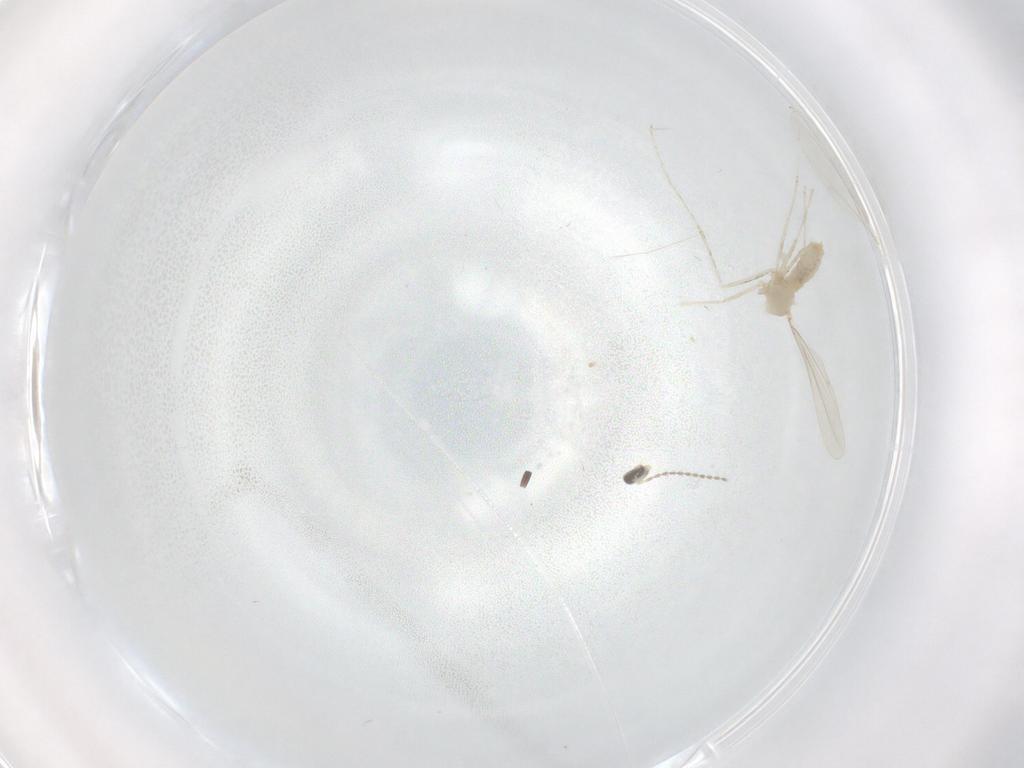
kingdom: Animalia
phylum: Arthropoda
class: Insecta
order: Diptera
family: Cecidomyiidae
